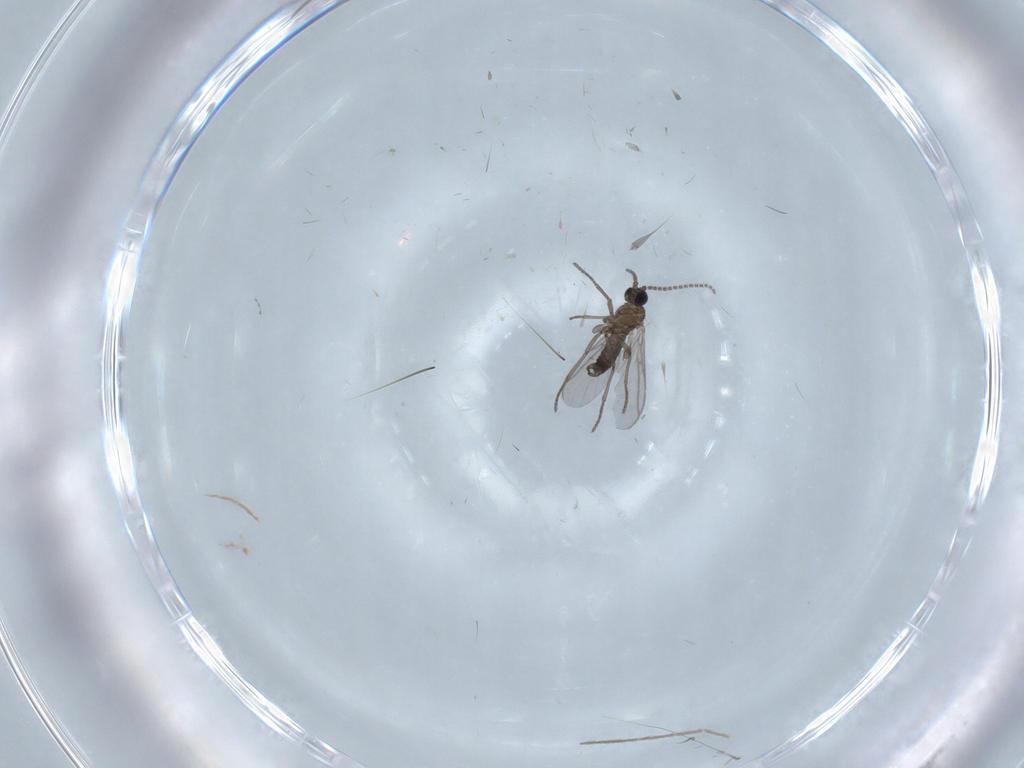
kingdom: Animalia
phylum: Arthropoda
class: Insecta
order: Diptera
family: Chironomidae
